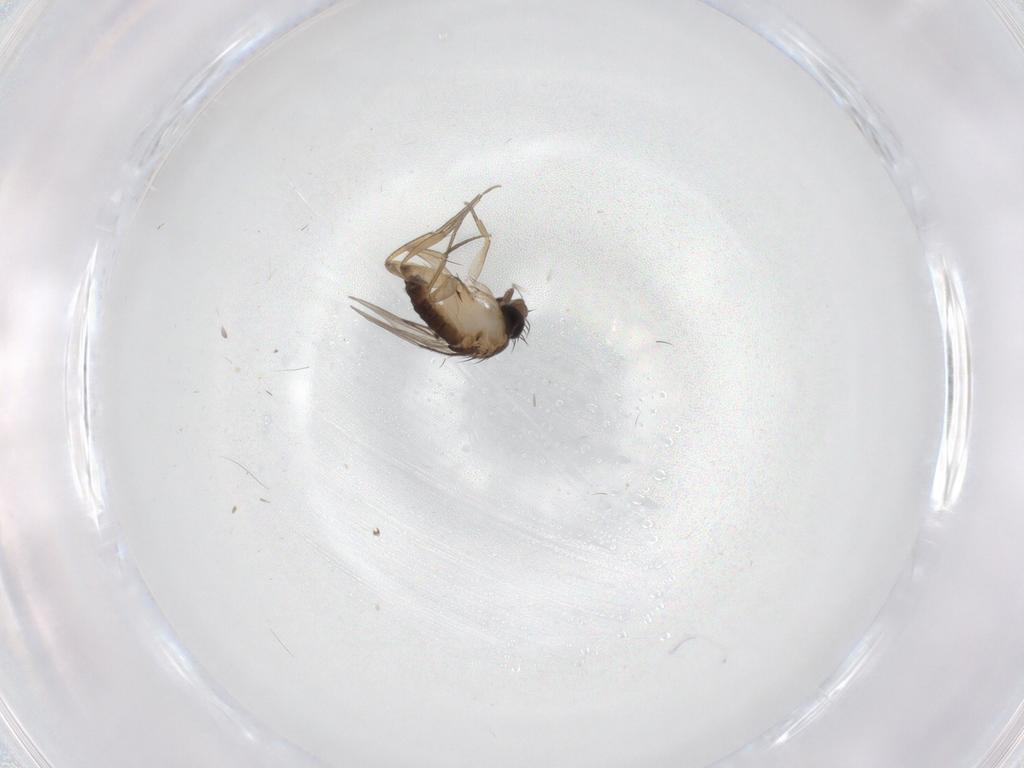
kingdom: Animalia
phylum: Arthropoda
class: Insecta
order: Diptera
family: Phoridae
